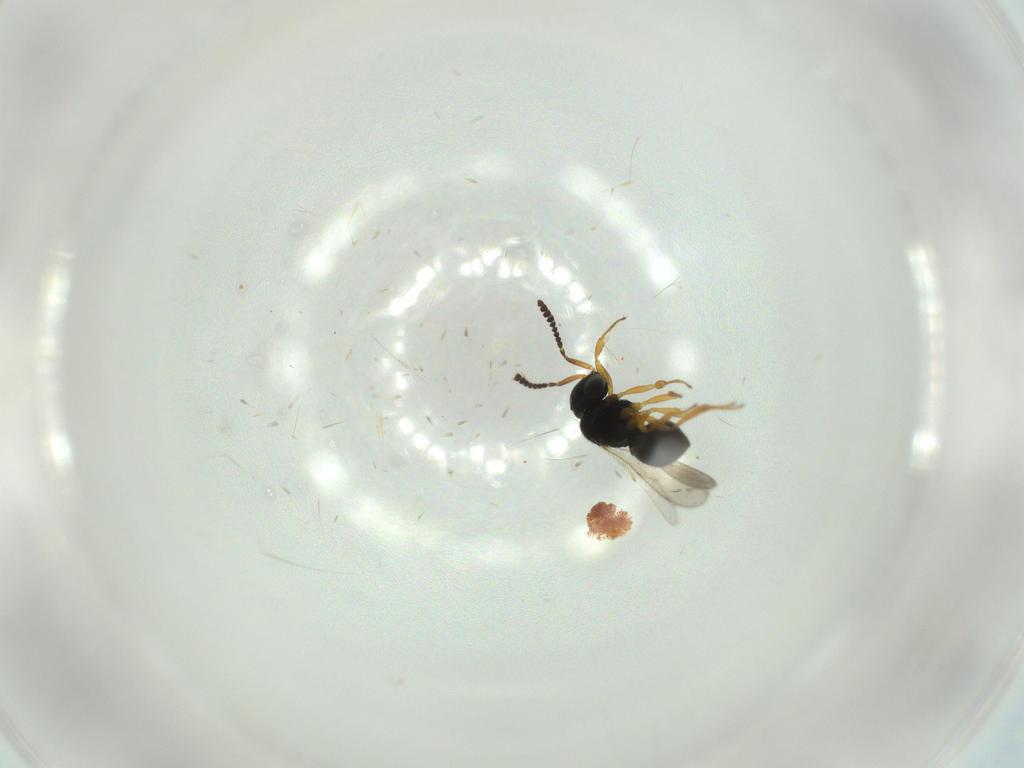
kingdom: Animalia
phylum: Arthropoda
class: Insecta
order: Hymenoptera
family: Scelionidae
